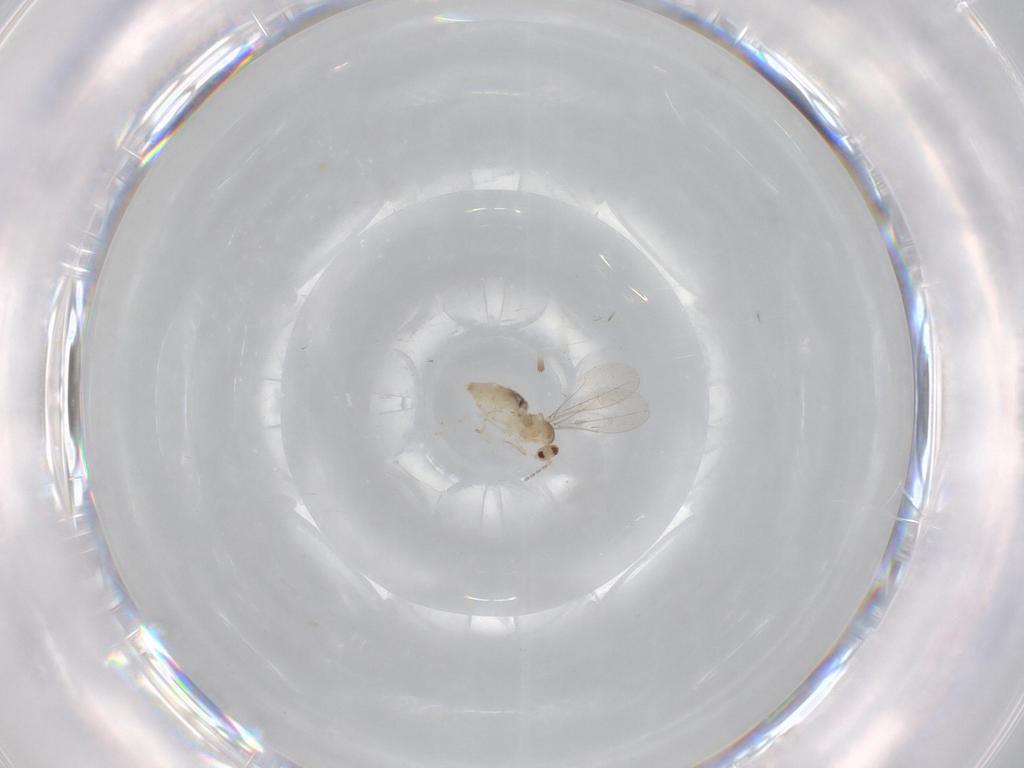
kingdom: Animalia
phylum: Arthropoda
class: Insecta
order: Diptera
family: Cecidomyiidae
